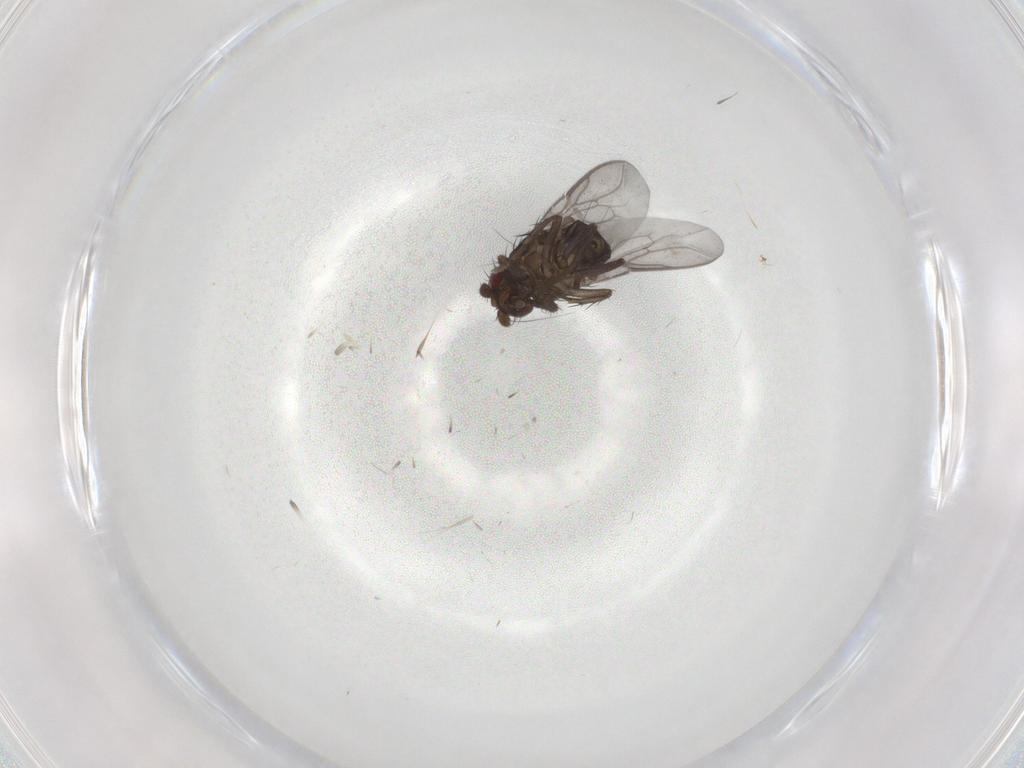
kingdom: Animalia
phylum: Arthropoda
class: Insecta
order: Diptera
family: Sphaeroceridae
